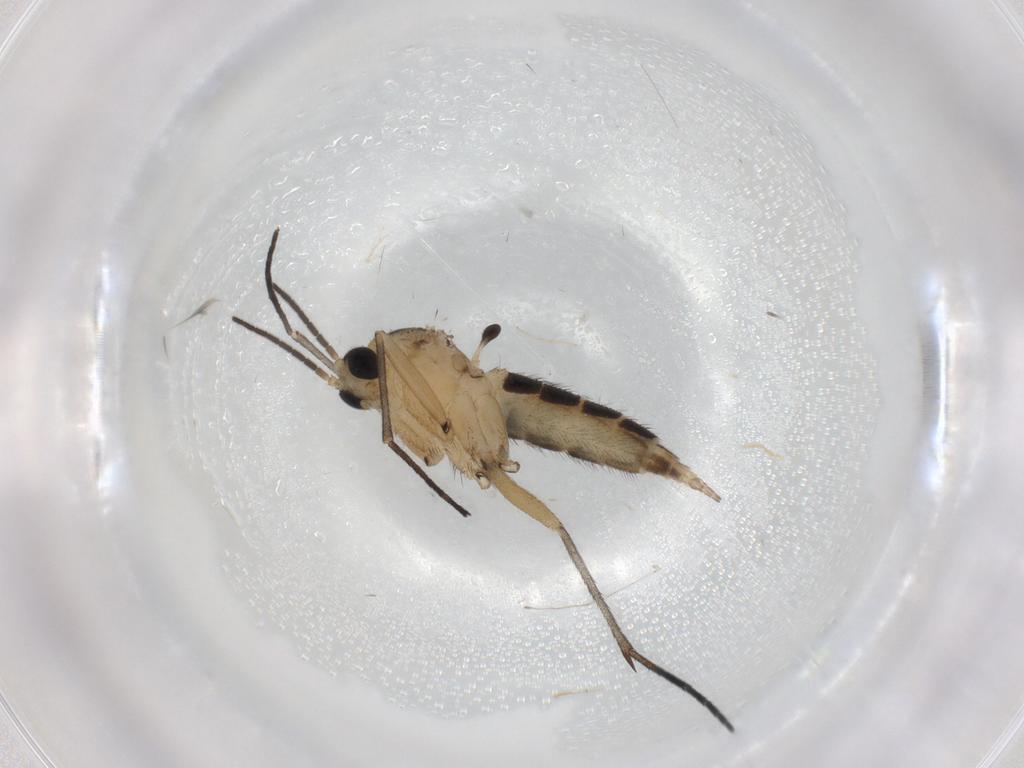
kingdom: Animalia
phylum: Arthropoda
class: Insecta
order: Diptera
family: Sciaridae
